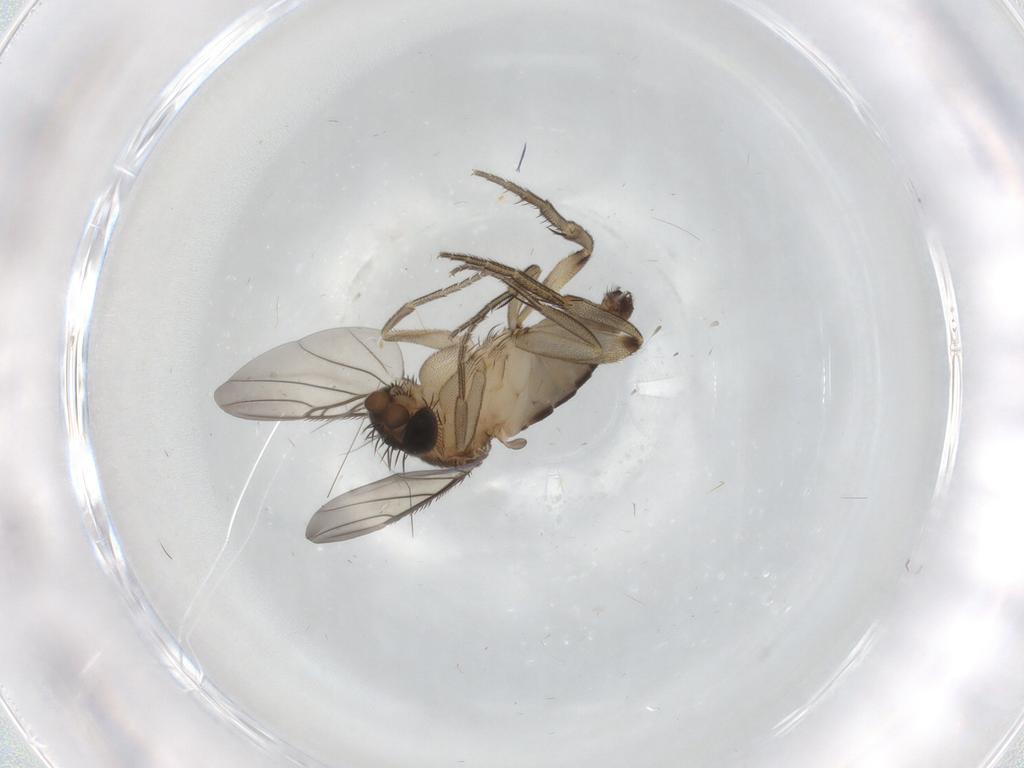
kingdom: Animalia
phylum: Arthropoda
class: Insecta
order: Diptera
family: Phoridae
